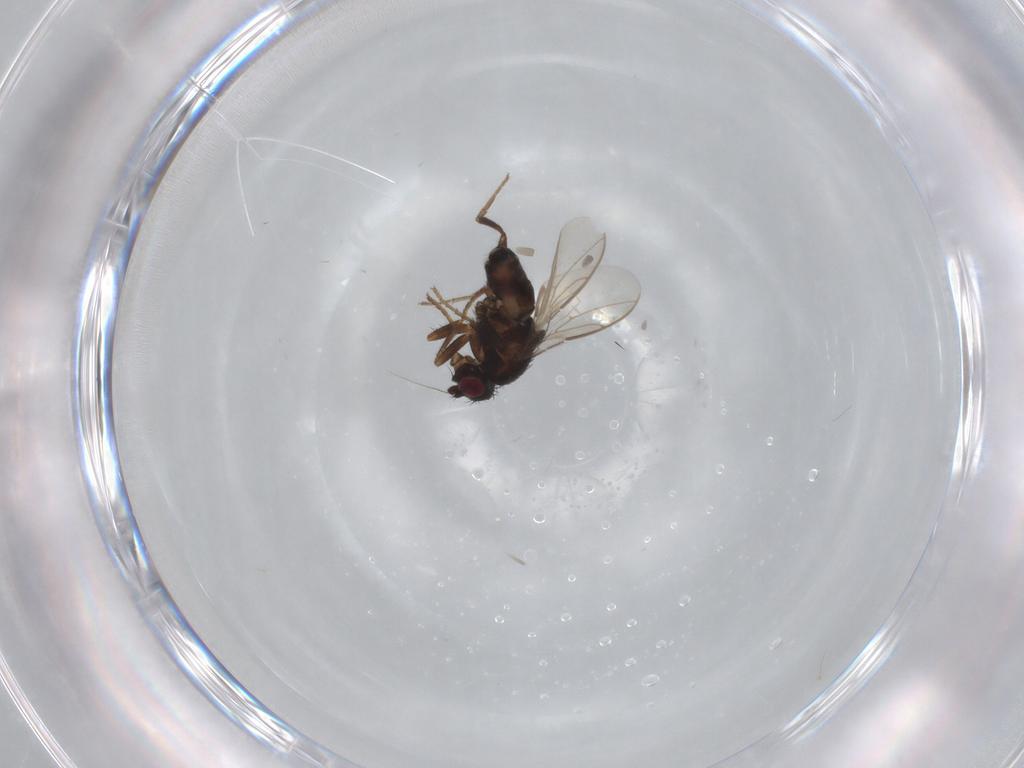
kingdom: Animalia
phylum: Arthropoda
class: Insecta
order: Diptera
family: Sphaeroceridae
